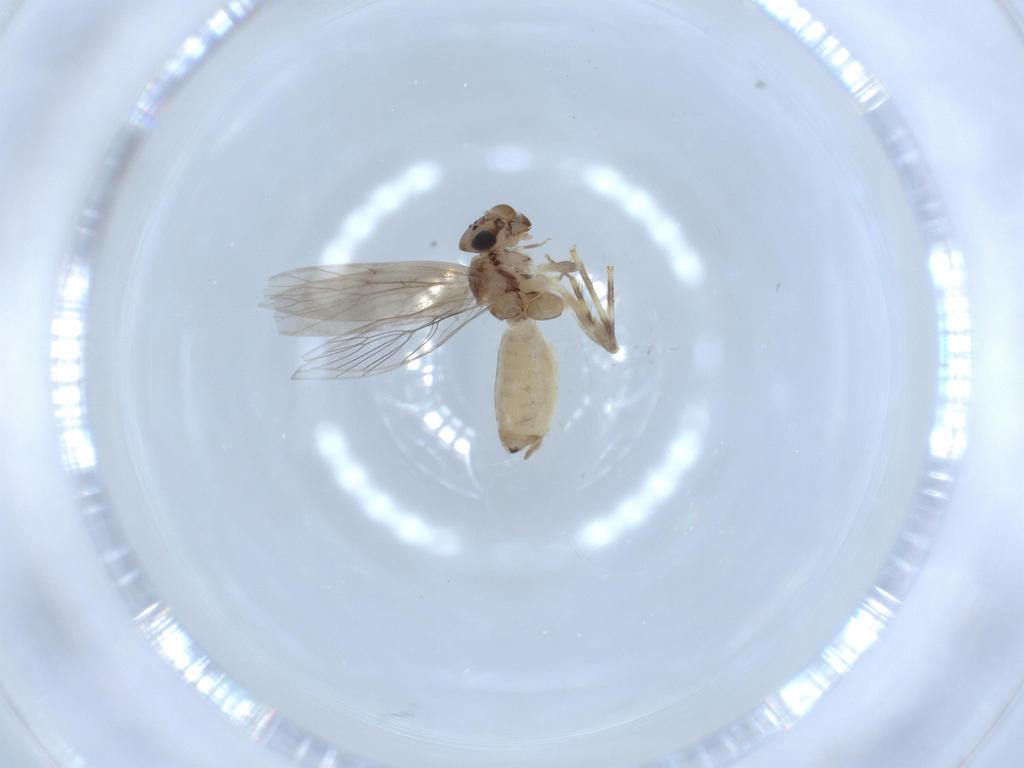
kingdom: Animalia
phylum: Arthropoda
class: Insecta
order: Psocodea
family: Lepidopsocidae
